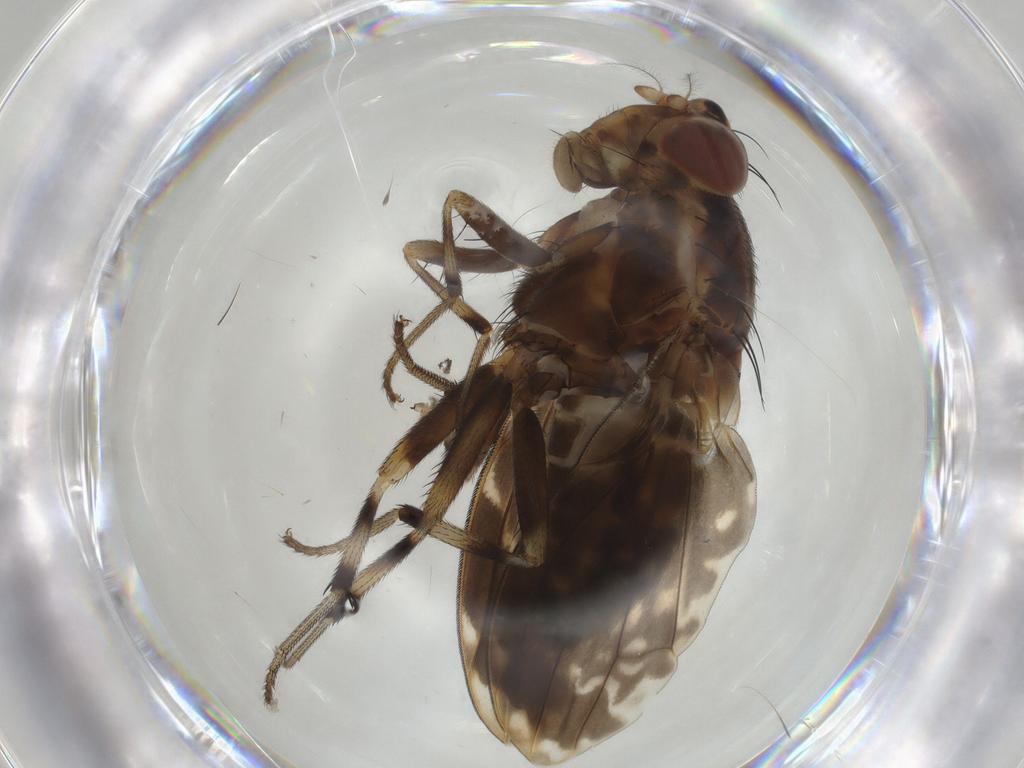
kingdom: Animalia
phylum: Arthropoda
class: Insecta
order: Diptera
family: Lauxaniidae
